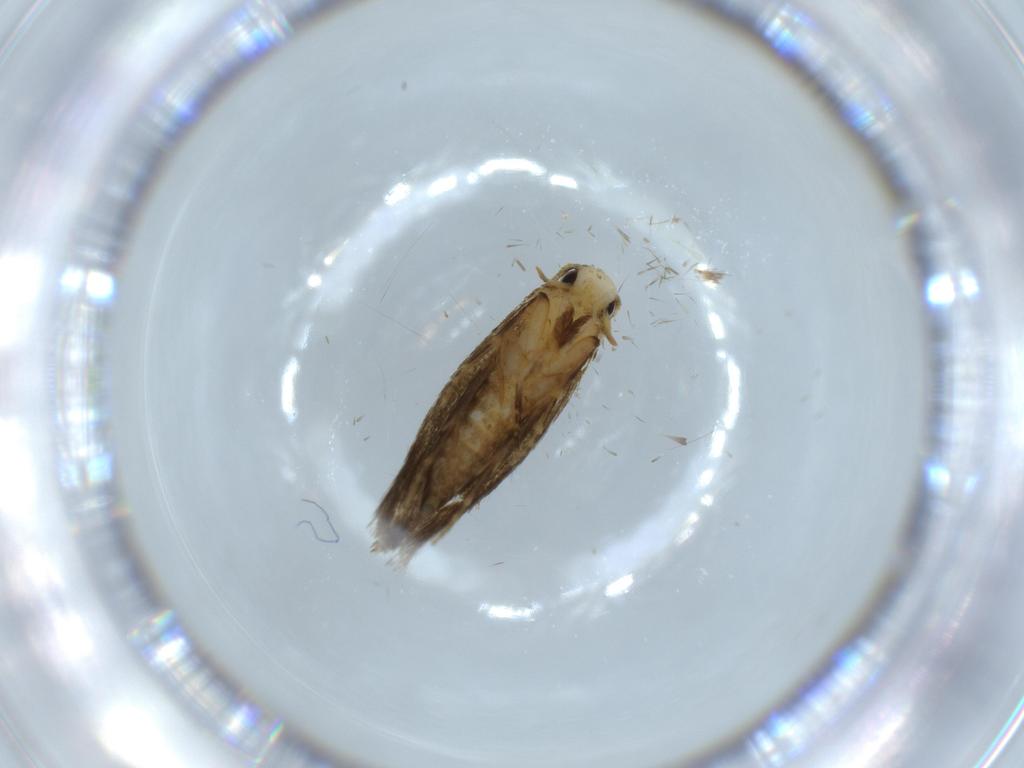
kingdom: Animalia
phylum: Arthropoda
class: Insecta
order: Lepidoptera
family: Tineidae
